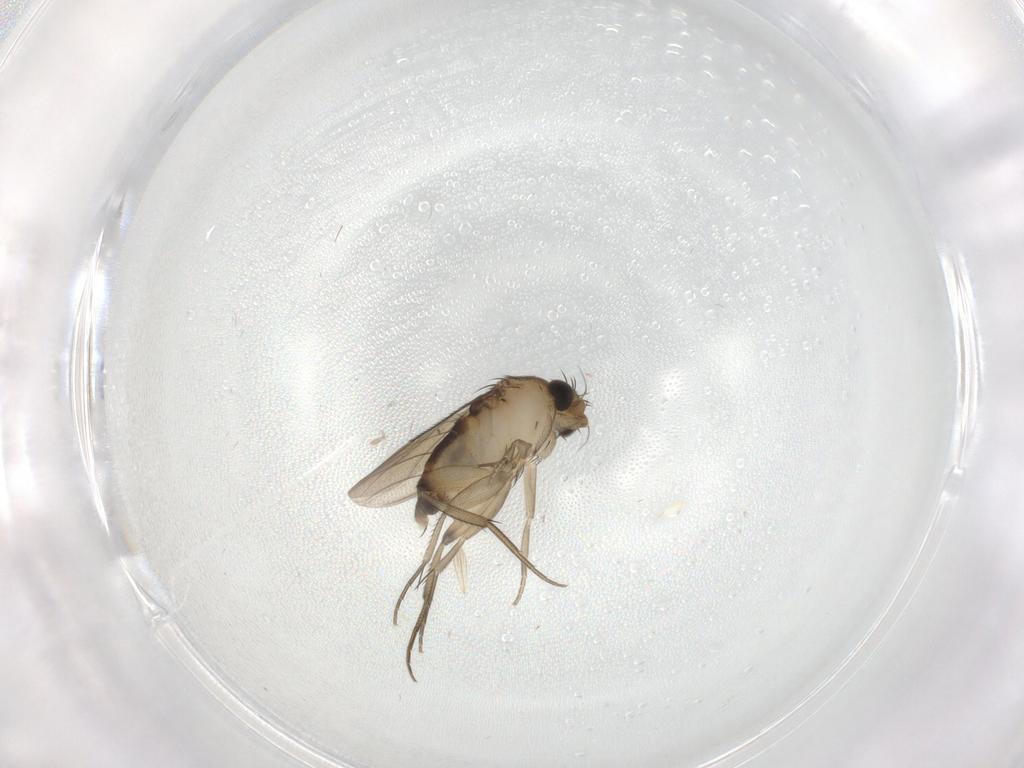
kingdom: Animalia
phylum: Arthropoda
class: Insecta
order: Diptera
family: Phoridae
